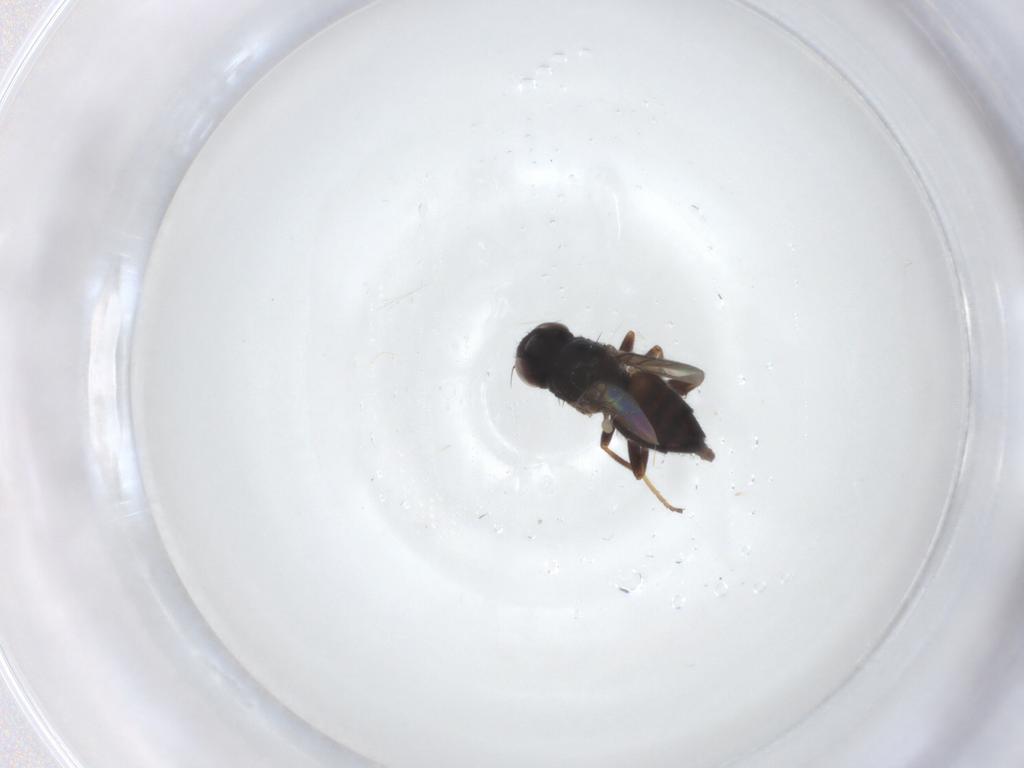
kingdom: Animalia
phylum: Arthropoda
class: Insecta
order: Diptera
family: Chloropidae
